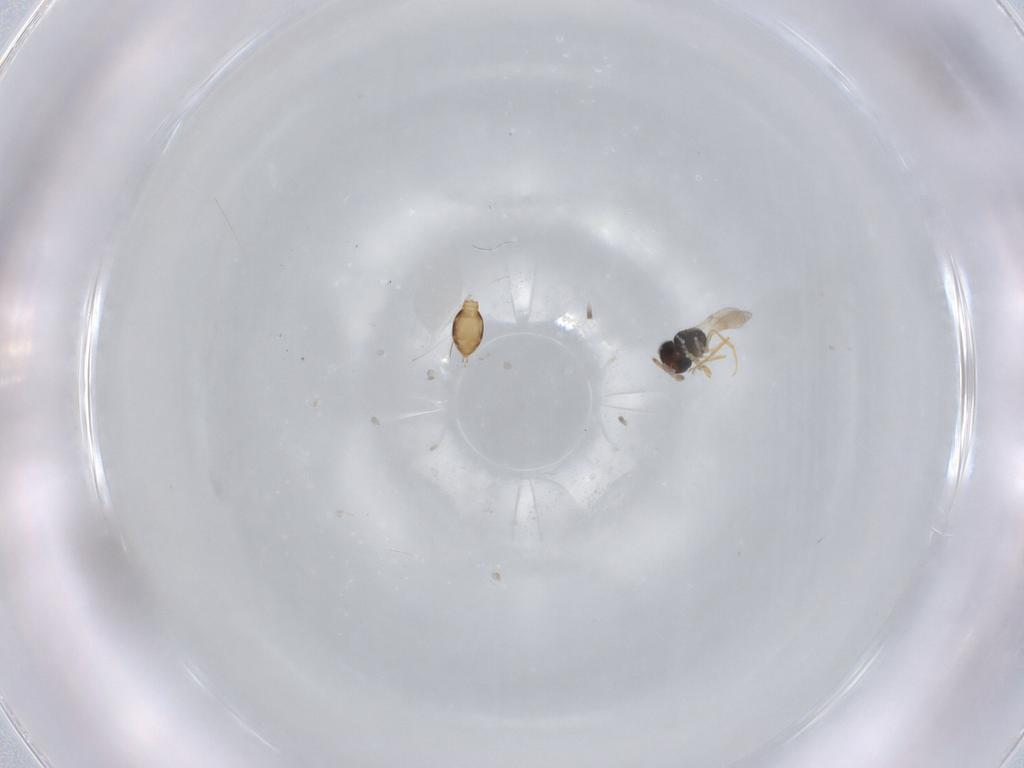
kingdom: Animalia
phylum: Arthropoda
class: Insecta
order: Hymenoptera
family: Scelionidae
